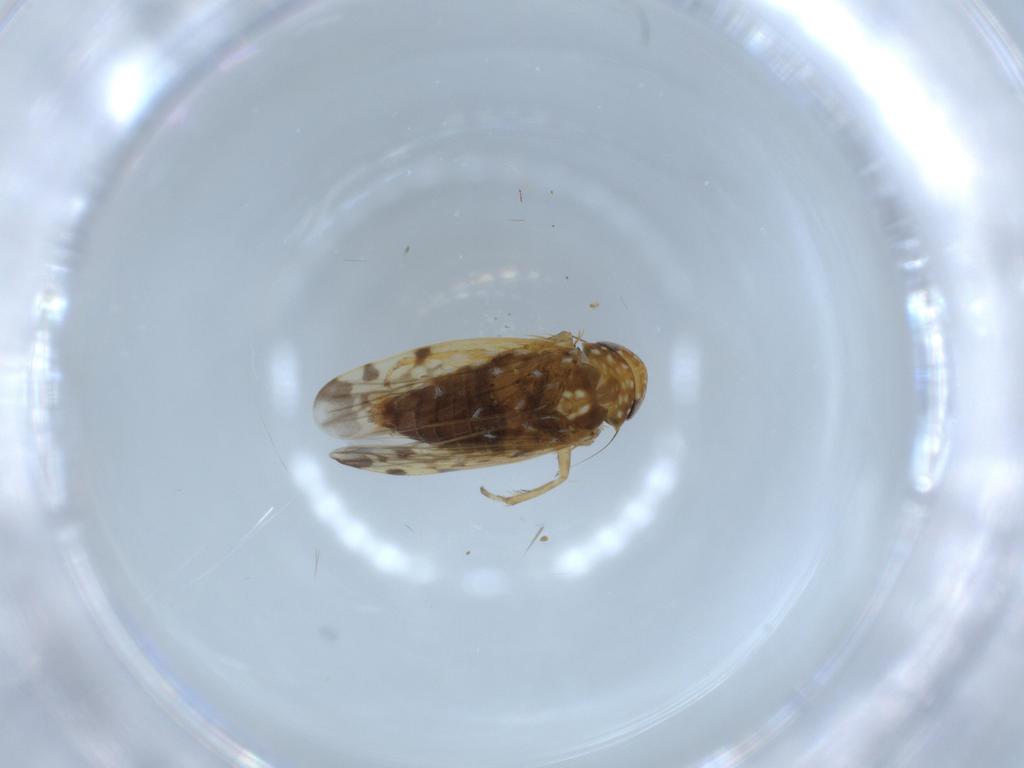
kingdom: Animalia
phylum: Arthropoda
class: Insecta
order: Hemiptera
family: Cicadellidae
